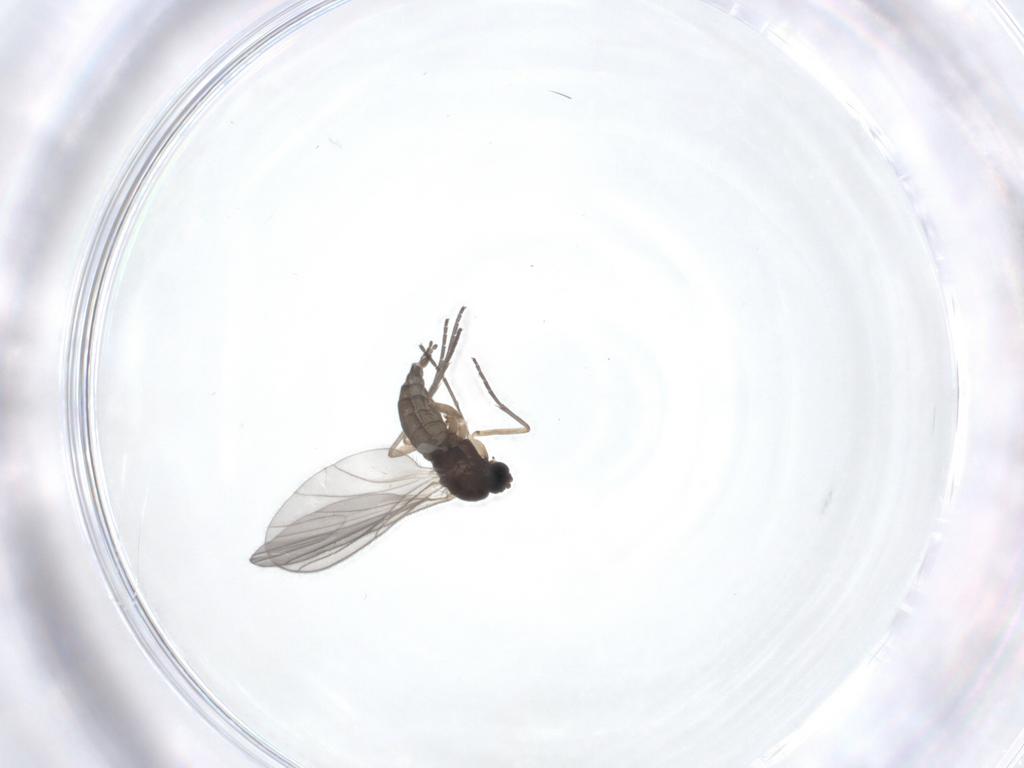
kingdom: Animalia
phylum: Arthropoda
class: Insecta
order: Diptera
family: Sciaridae
